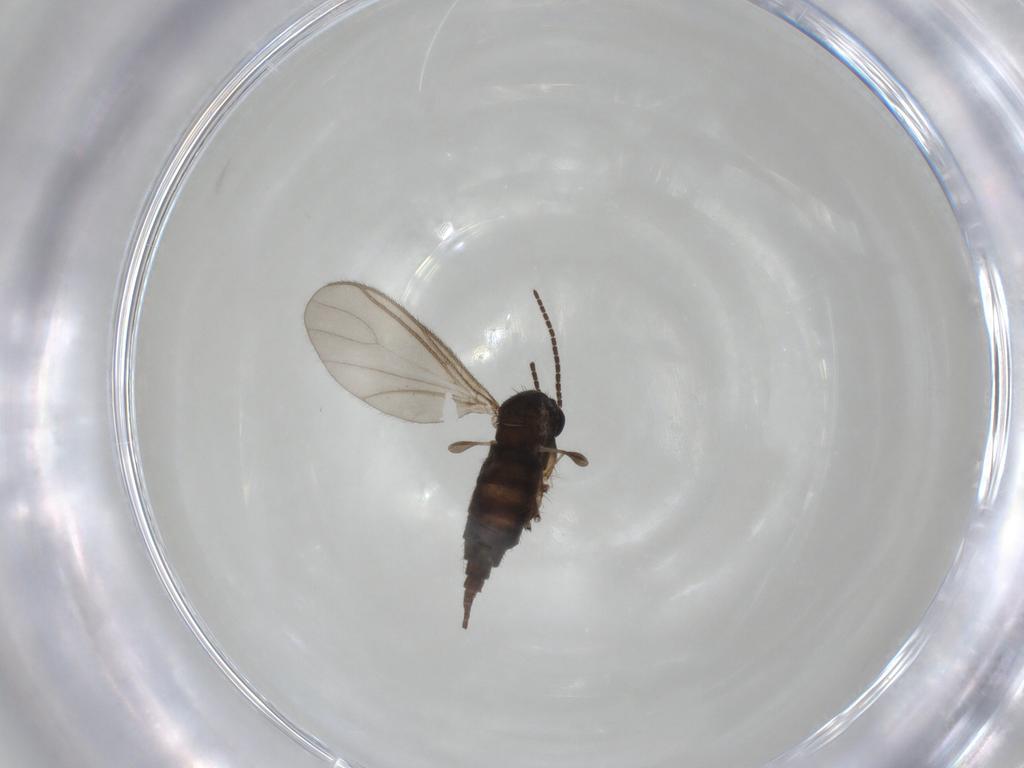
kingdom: Animalia
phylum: Arthropoda
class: Insecta
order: Diptera
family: Sciaridae
